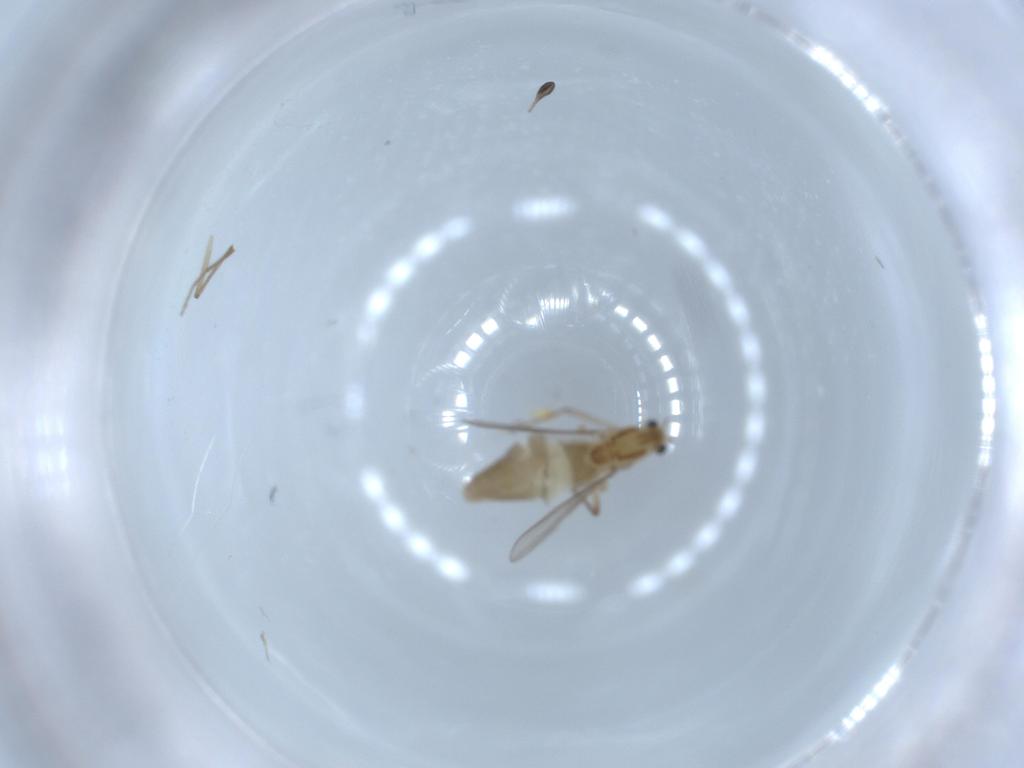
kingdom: Animalia
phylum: Arthropoda
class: Insecta
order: Diptera
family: Chironomidae
